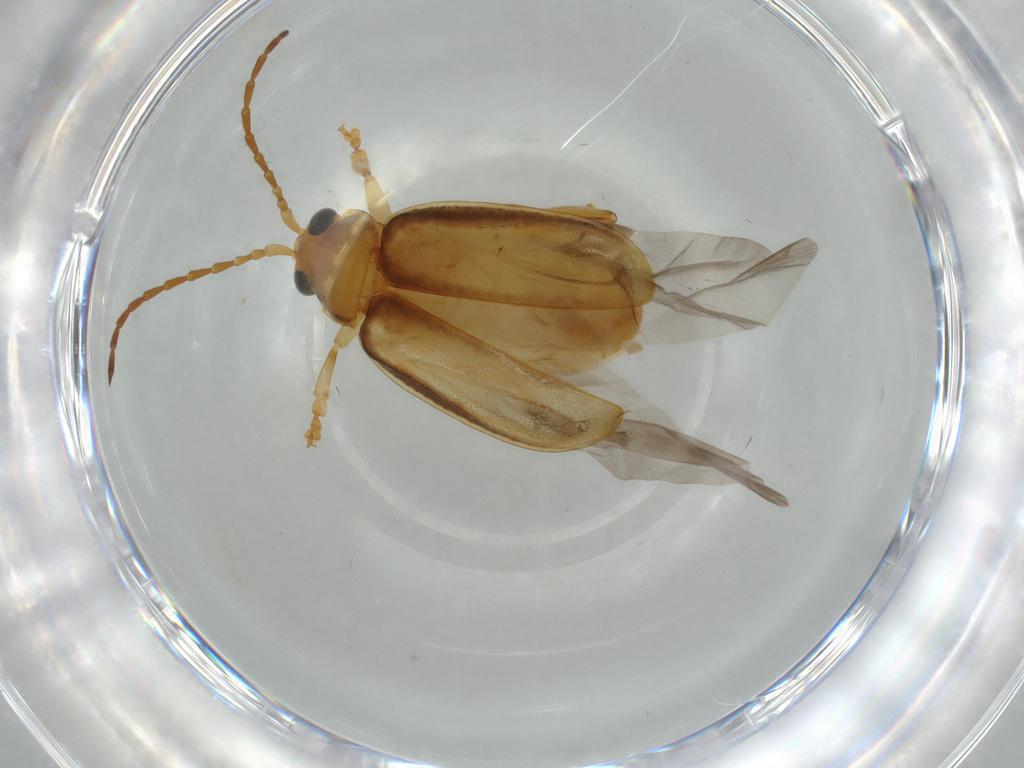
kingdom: Animalia
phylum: Arthropoda
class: Insecta
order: Coleoptera
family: Chrysomelidae
